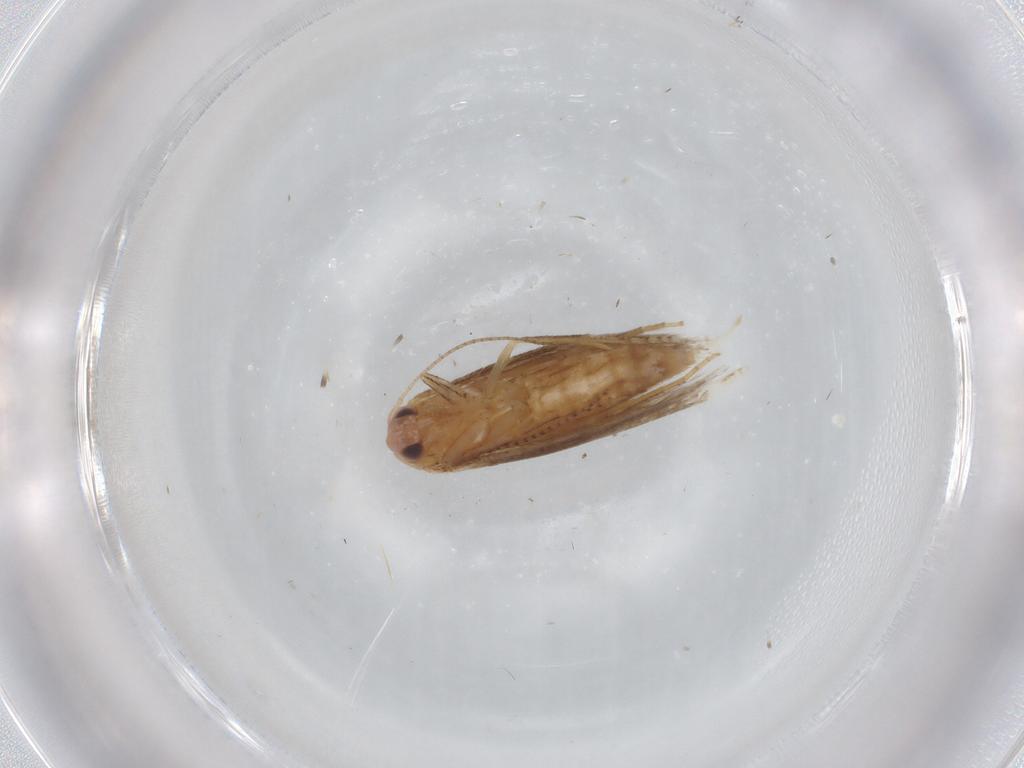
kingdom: Animalia
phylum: Arthropoda
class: Insecta
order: Lepidoptera
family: Bucculatricidae
